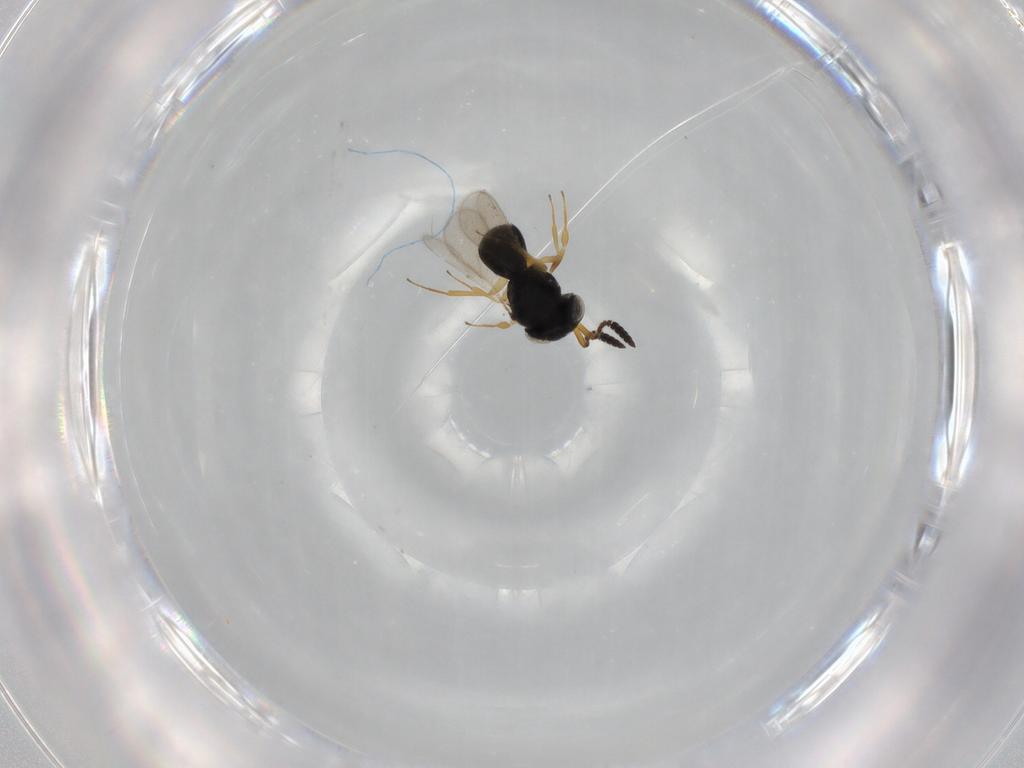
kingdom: Animalia
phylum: Arthropoda
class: Insecta
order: Hymenoptera
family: Scelionidae
